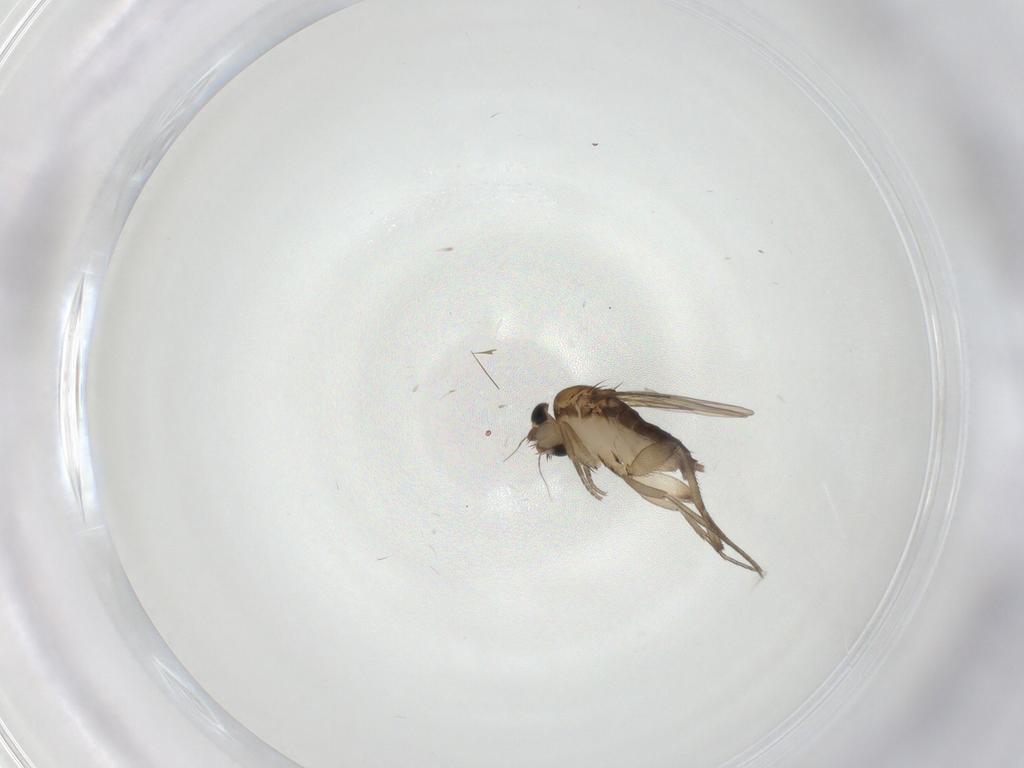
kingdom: Animalia
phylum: Arthropoda
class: Insecta
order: Diptera
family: Phoridae
